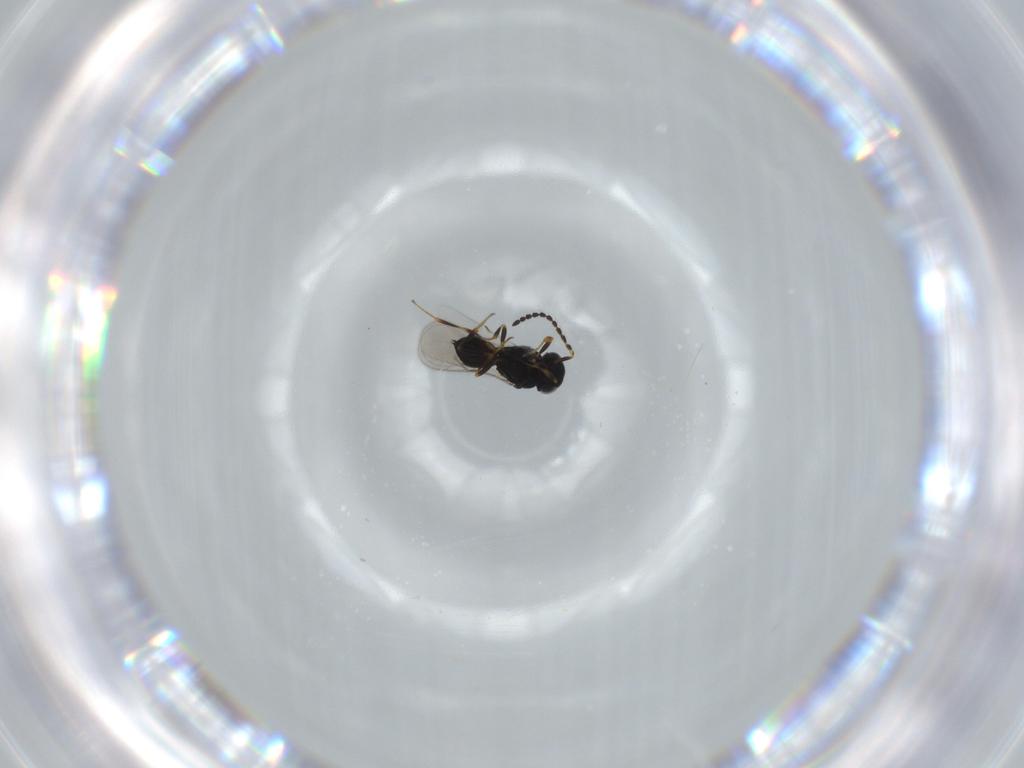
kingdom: Animalia
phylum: Arthropoda
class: Insecta
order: Hymenoptera
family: Scelionidae
